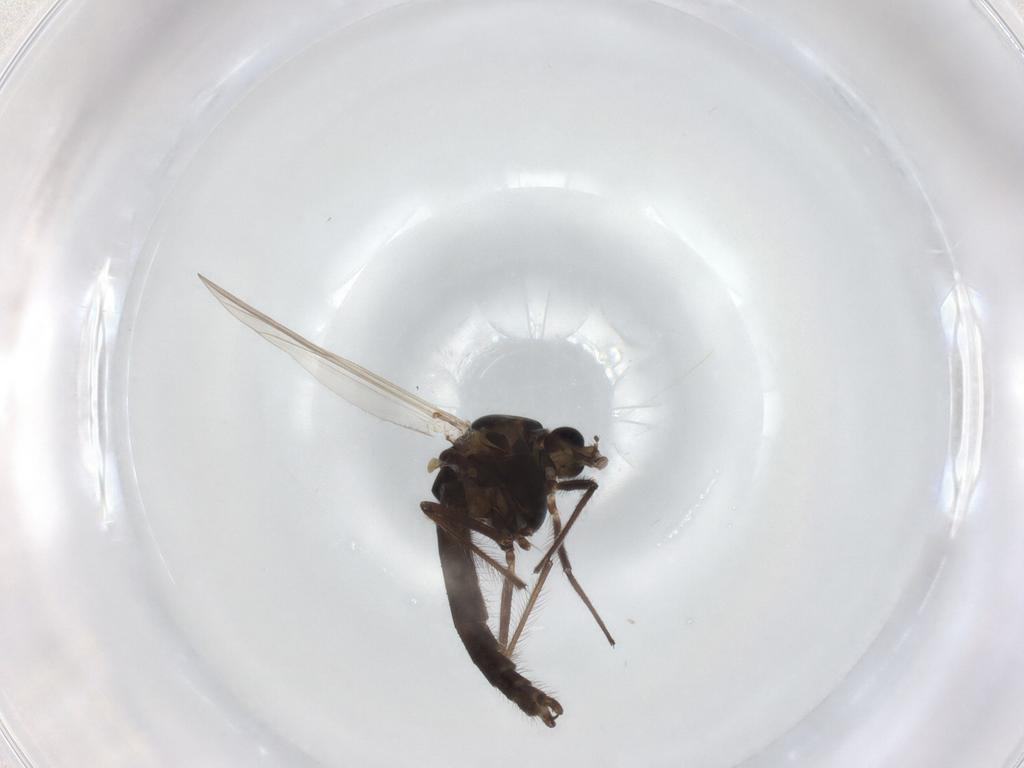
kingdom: Animalia
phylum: Arthropoda
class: Insecta
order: Diptera
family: Chironomidae
